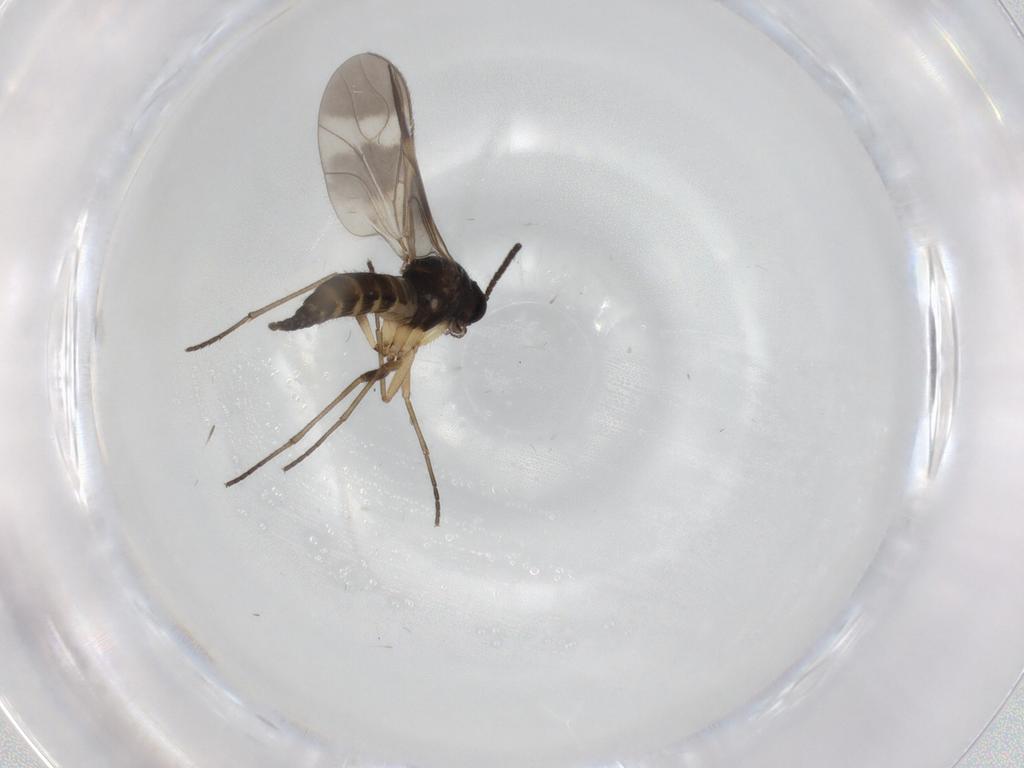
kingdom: Animalia
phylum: Arthropoda
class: Insecta
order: Diptera
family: Sciaridae
